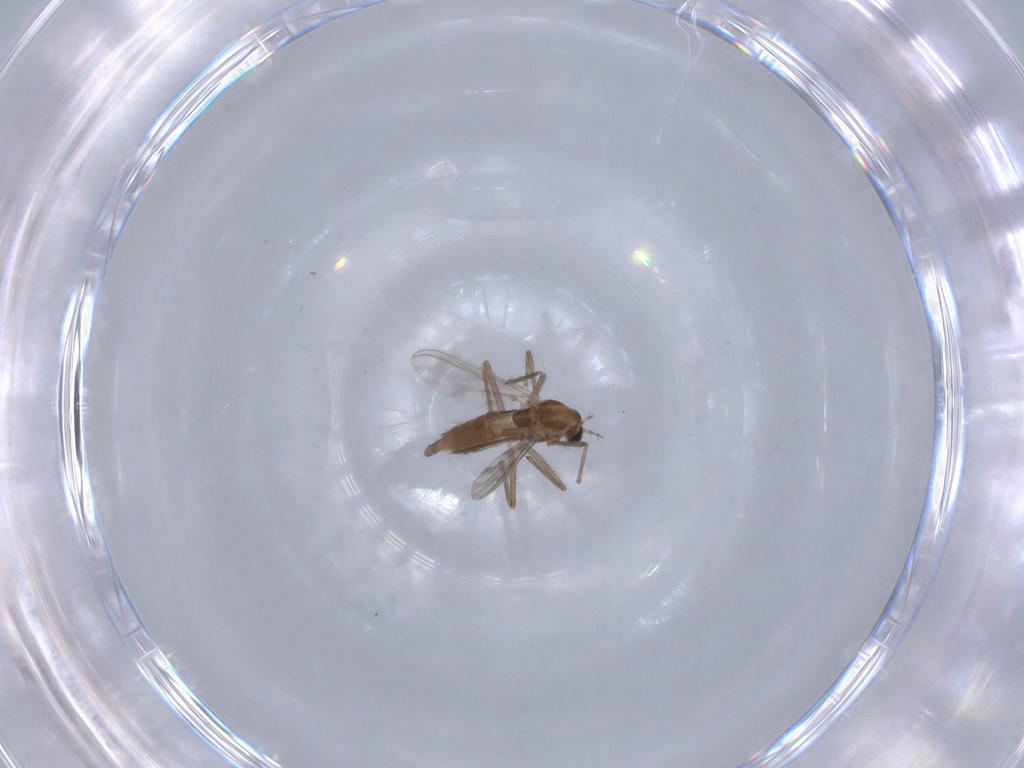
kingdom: Animalia
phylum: Arthropoda
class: Insecta
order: Diptera
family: Chironomidae
